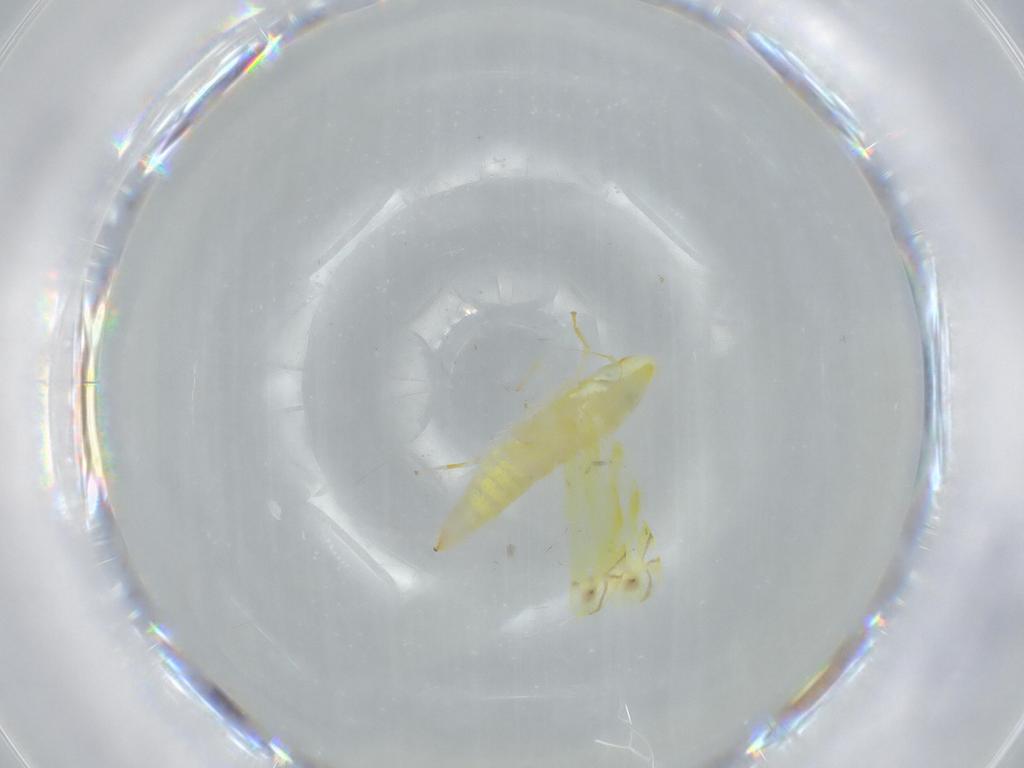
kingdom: Animalia
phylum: Arthropoda
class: Insecta
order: Hemiptera
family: Cicadellidae
